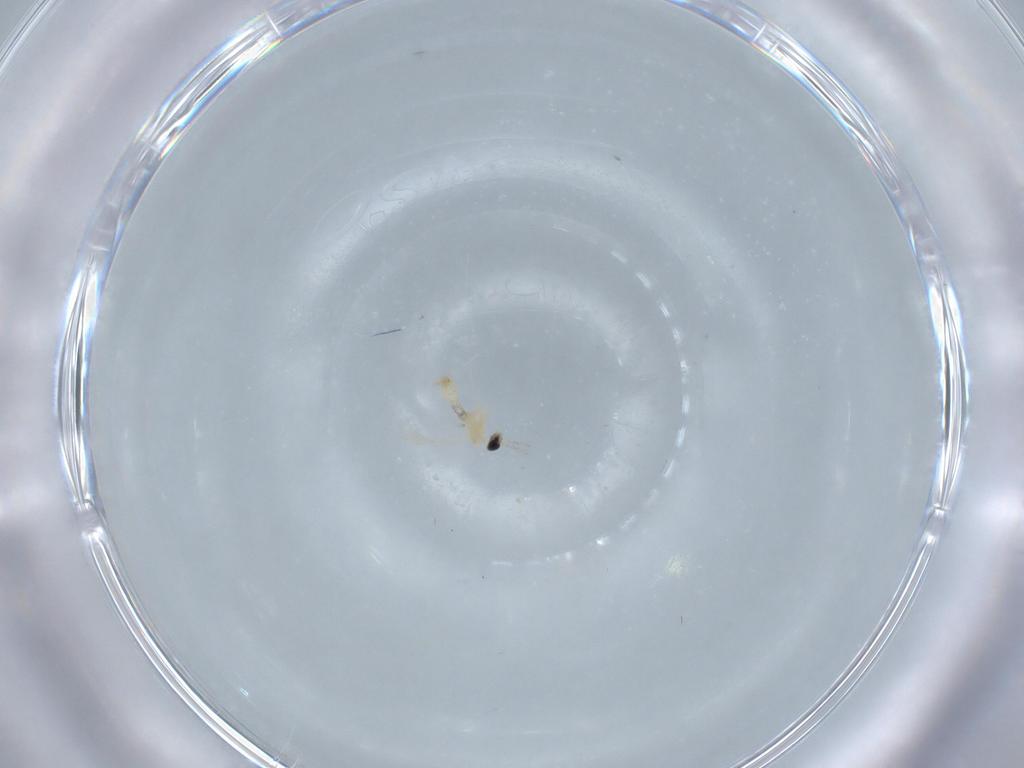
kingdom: Animalia
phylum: Arthropoda
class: Insecta
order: Diptera
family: Cecidomyiidae
